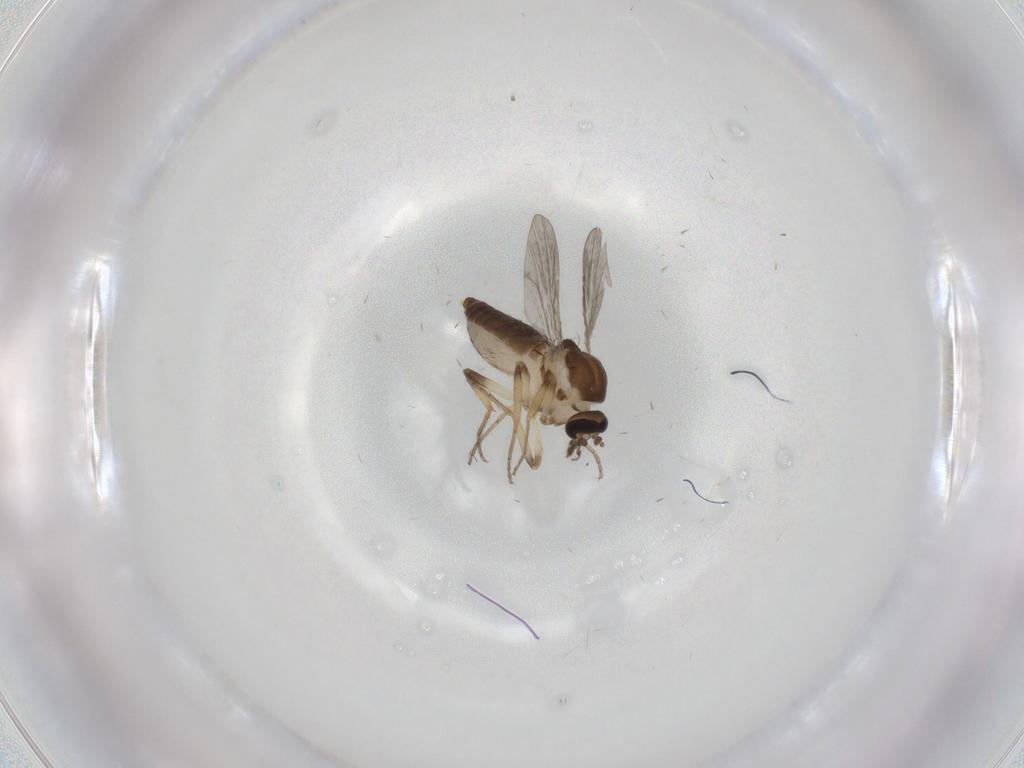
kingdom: Animalia
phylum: Arthropoda
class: Insecta
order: Diptera
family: Ceratopogonidae
